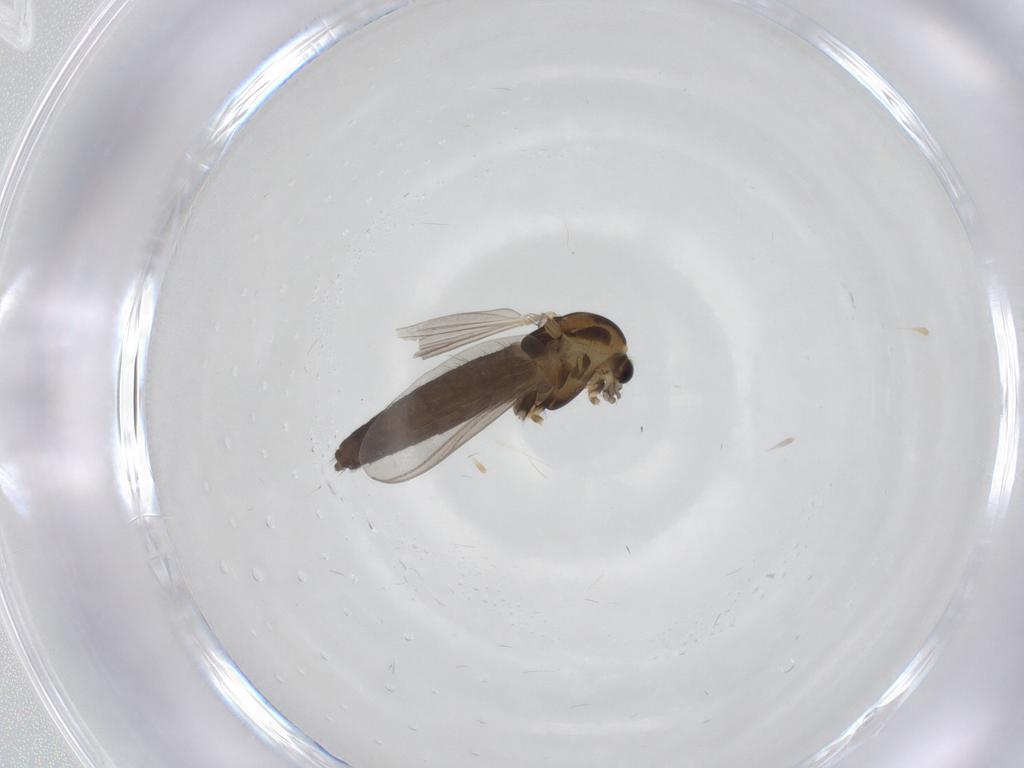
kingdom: Animalia
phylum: Arthropoda
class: Insecta
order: Diptera
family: Chironomidae
